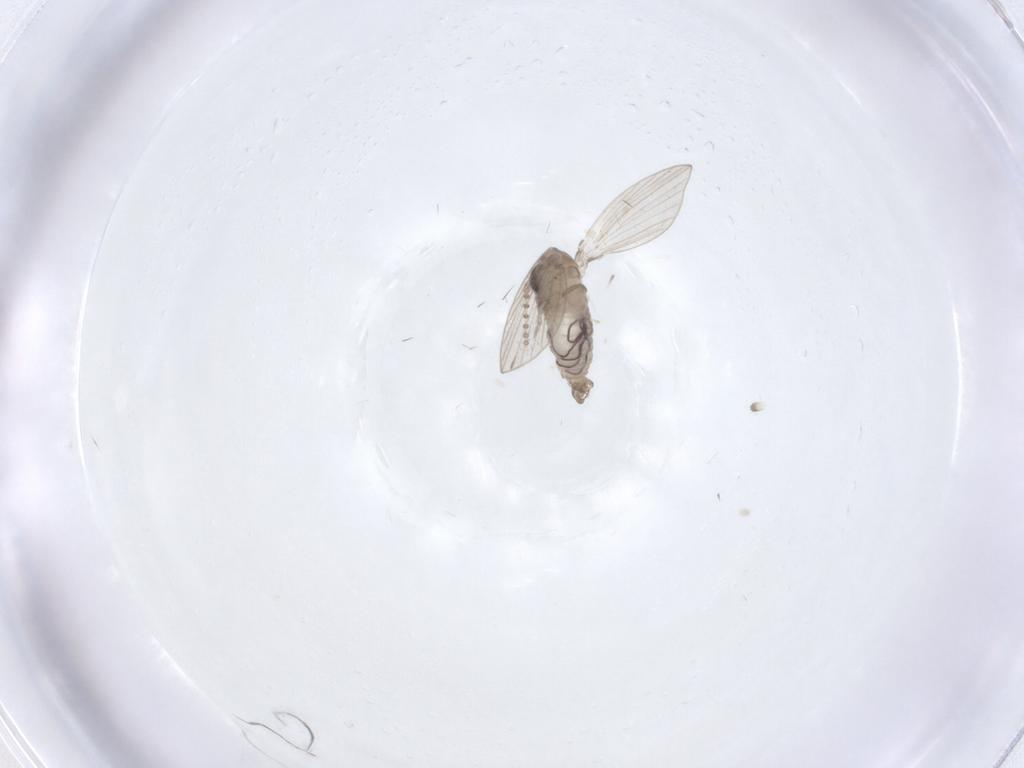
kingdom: Animalia
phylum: Arthropoda
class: Insecta
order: Diptera
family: Psychodidae
